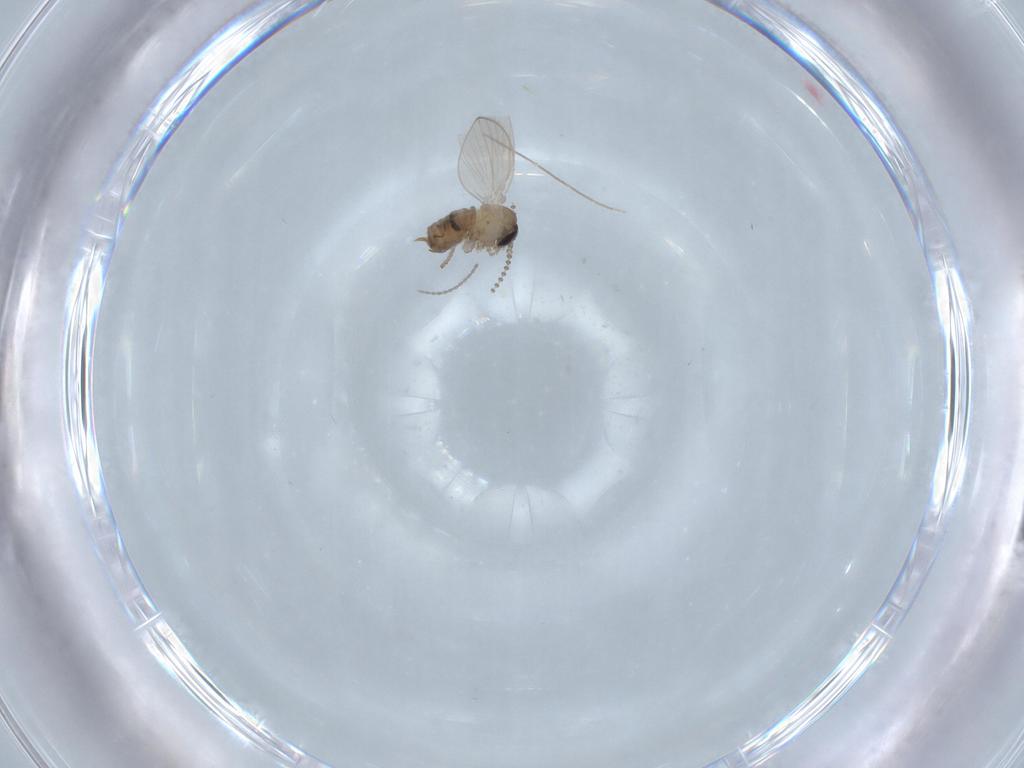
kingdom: Animalia
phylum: Arthropoda
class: Insecta
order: Diptera
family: Psychodidae
